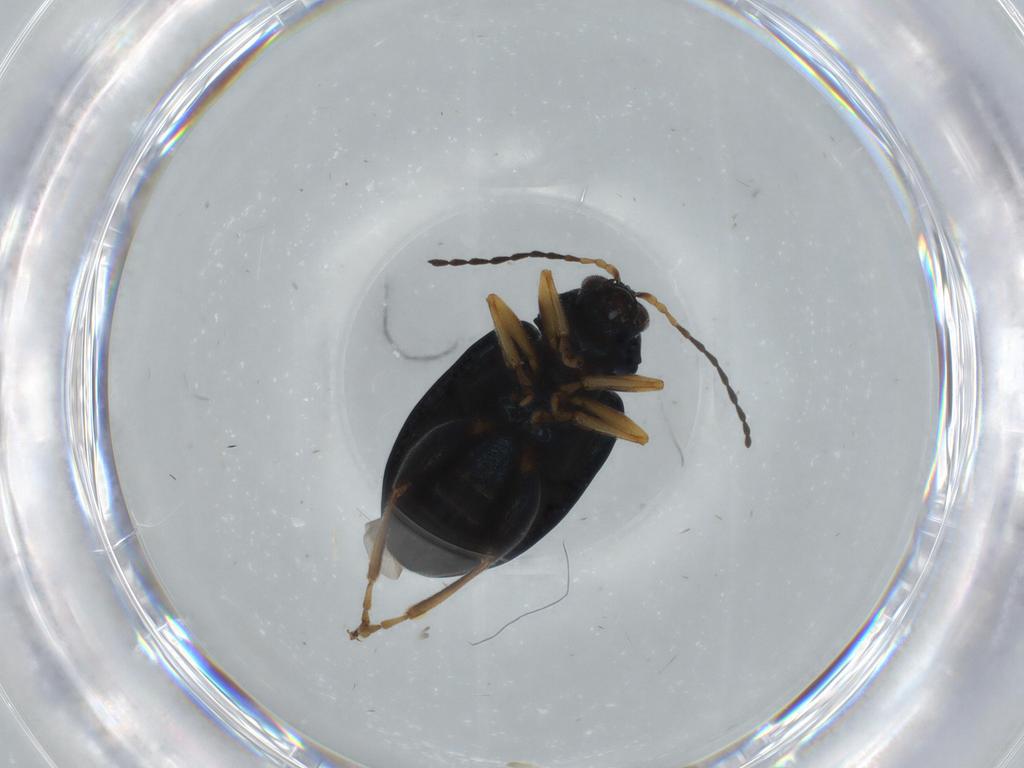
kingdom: Animalia
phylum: Arthropoda
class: Insecta
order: Coleoptera
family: Chrysomelidae
